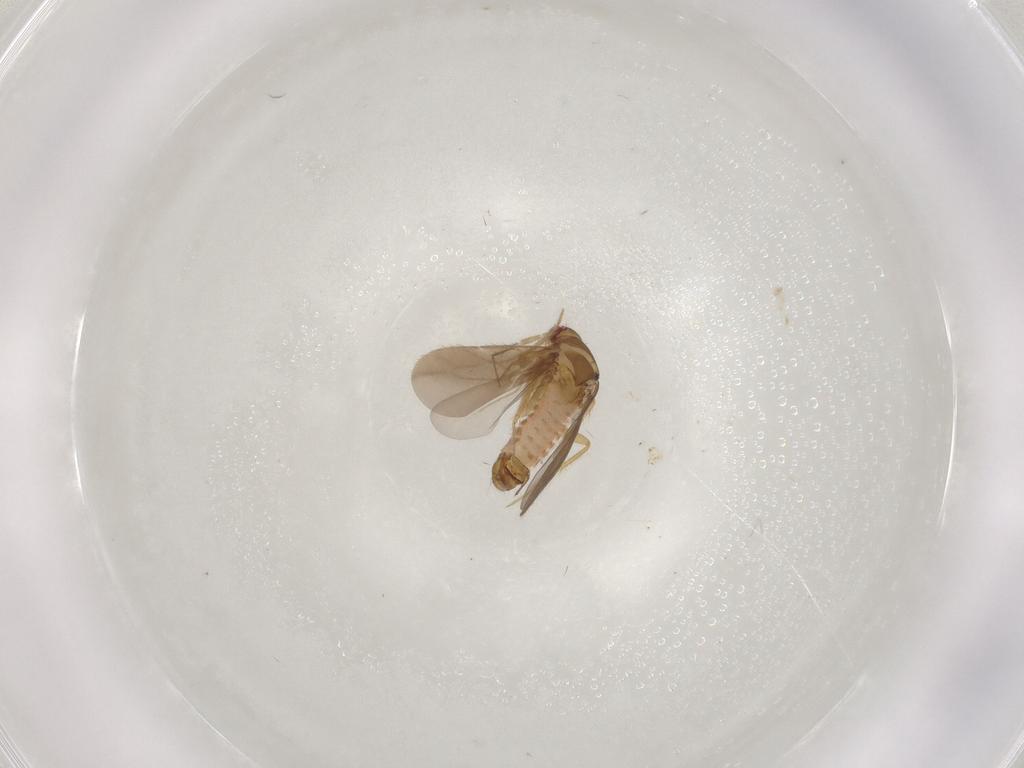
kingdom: Animalia
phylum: Arthropoda
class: Insecta
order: Hemiptera
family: Ceratocombidae
